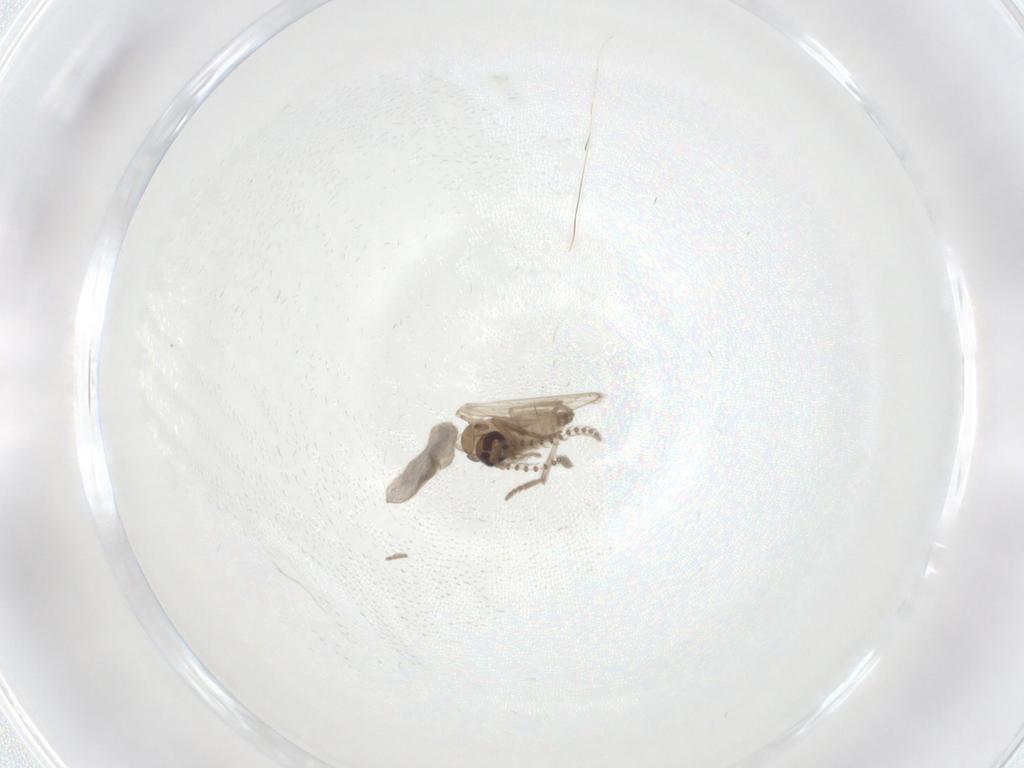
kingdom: Animalia
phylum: Arthropoda
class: Insecta
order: Diptera
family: Psychodidae
